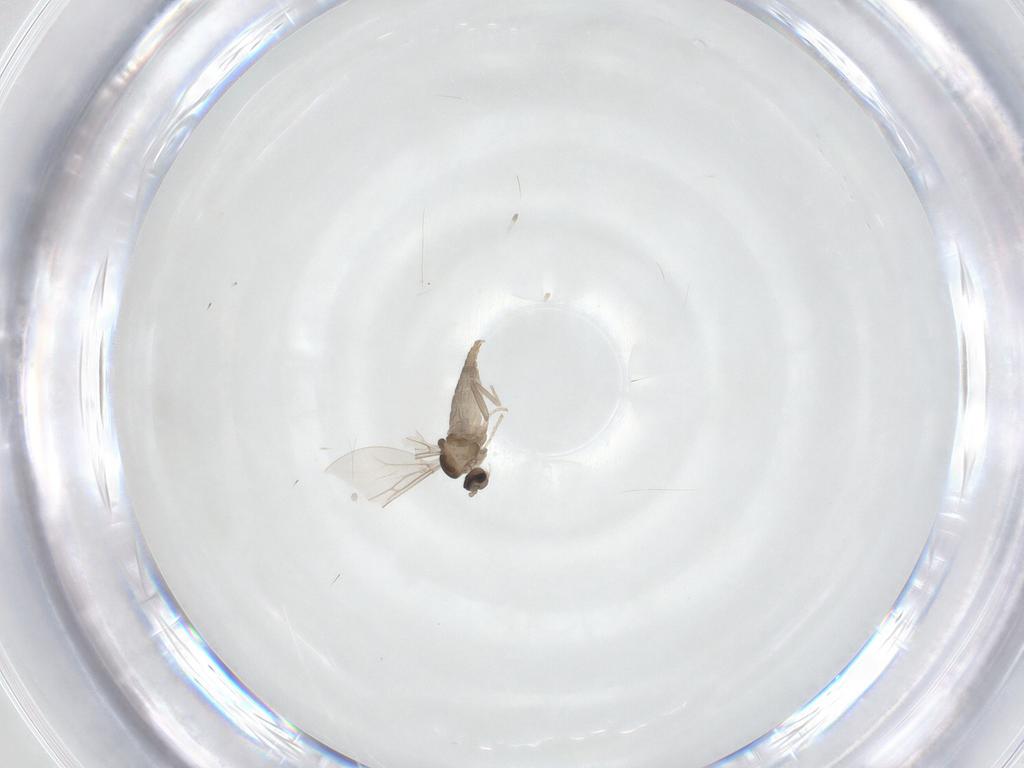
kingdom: Animalia
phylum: Arthropoda
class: Insecta
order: Diptera
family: Cecidomyiidae
